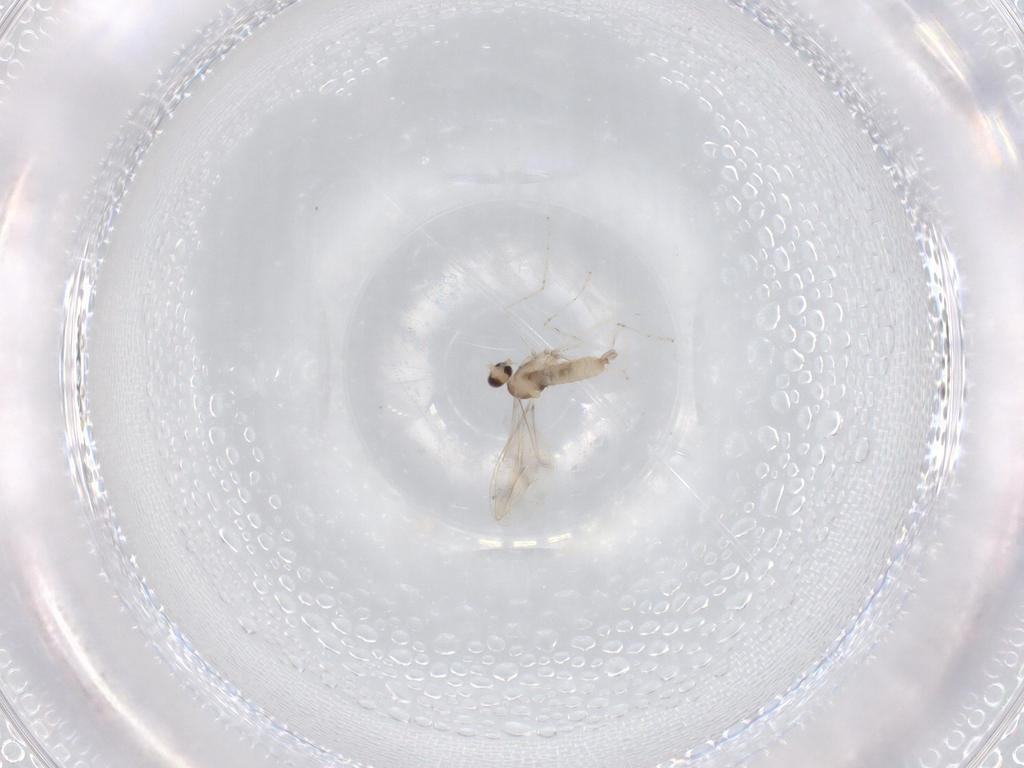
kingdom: Animalia
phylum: Arthropoda
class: Insecta
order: Diptera
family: Cecidomyiidae
